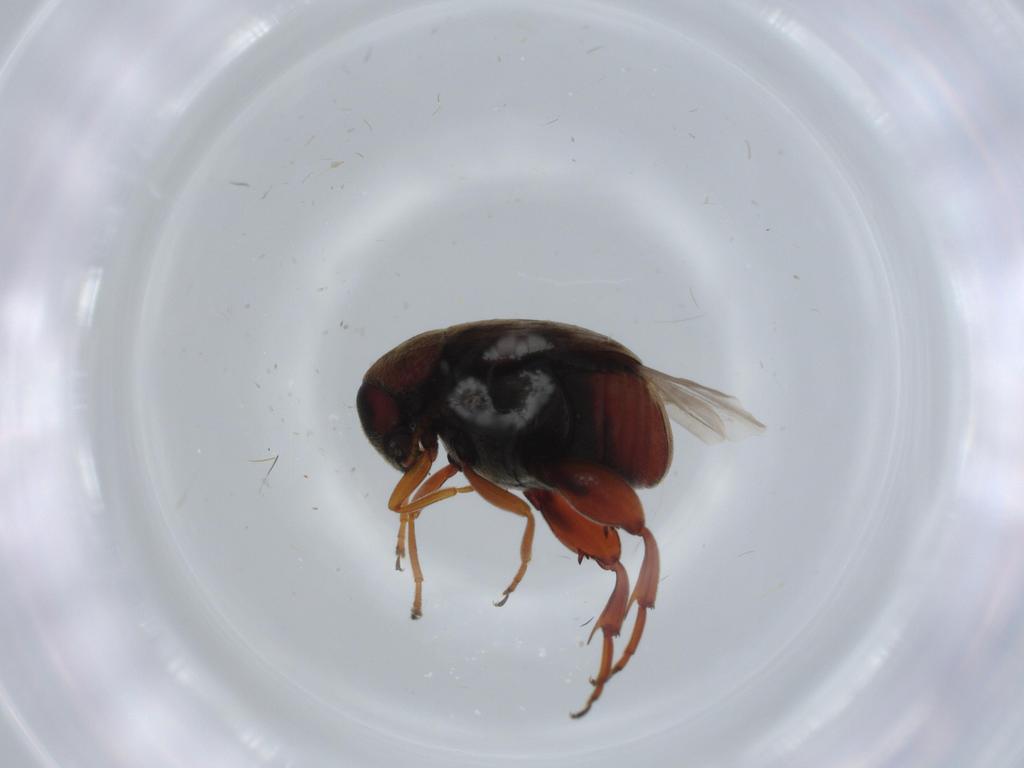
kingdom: Animalia
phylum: Arthropoda
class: Insecta
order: Coleoptera
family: Chrysomelidae
